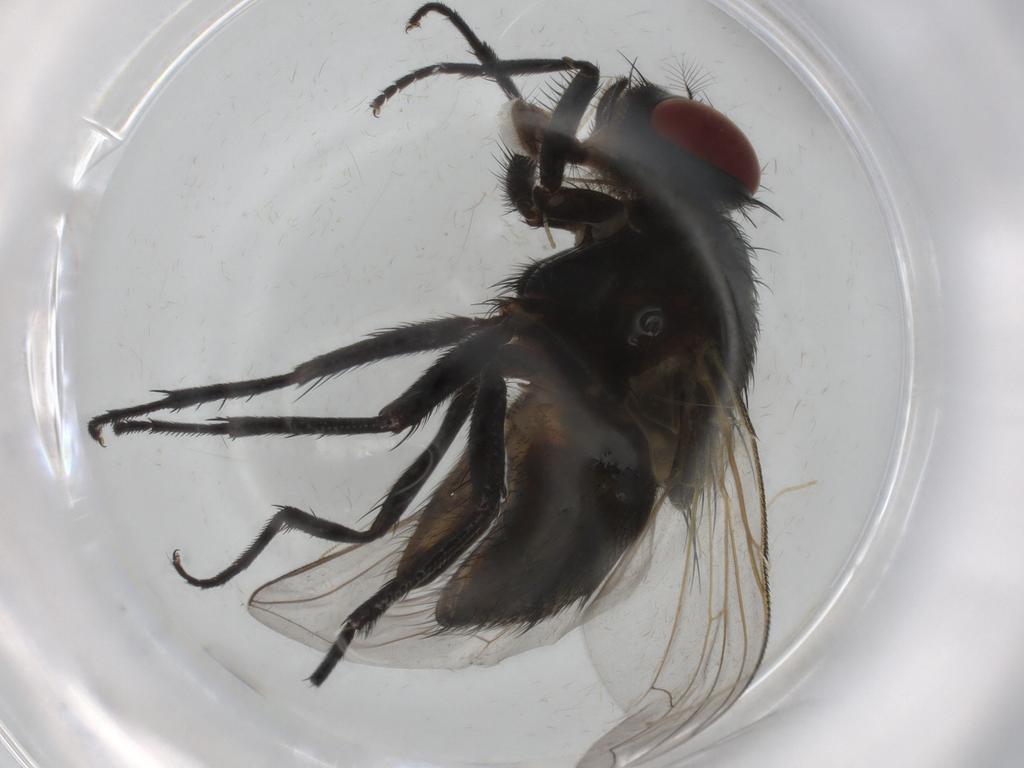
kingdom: Animalia
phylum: Arthropoda
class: Insecta
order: Diptera
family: Muscidae
